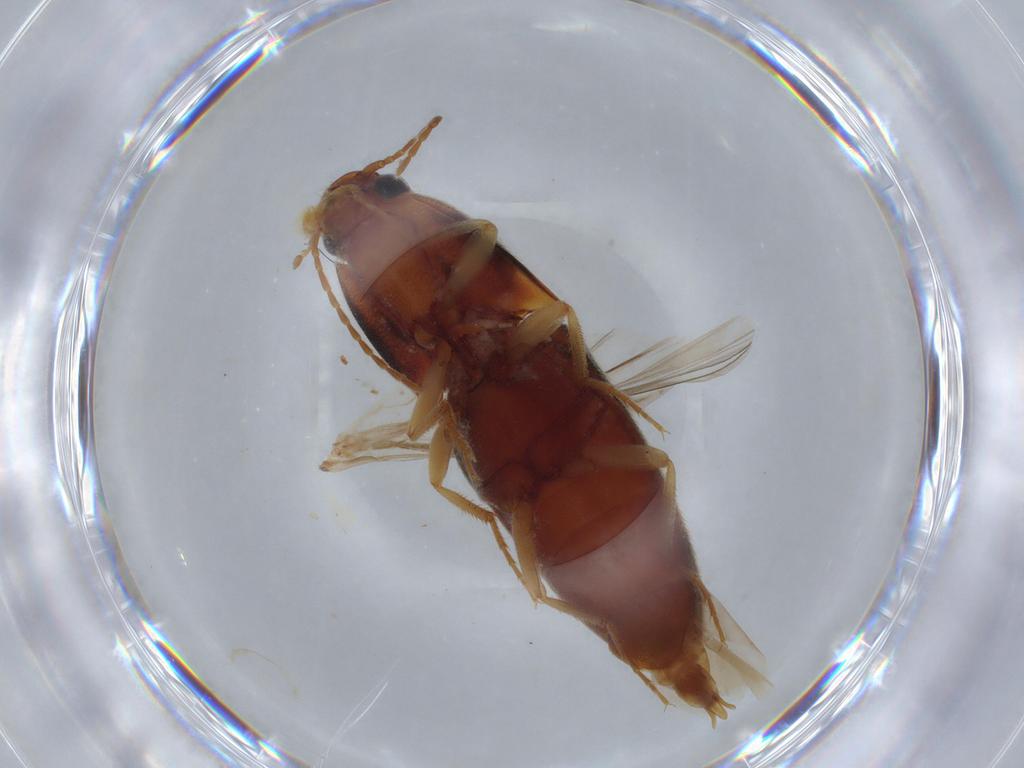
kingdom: Animalia
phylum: Arthropoda
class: Insecta
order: Coleoptera
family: Elateridae
